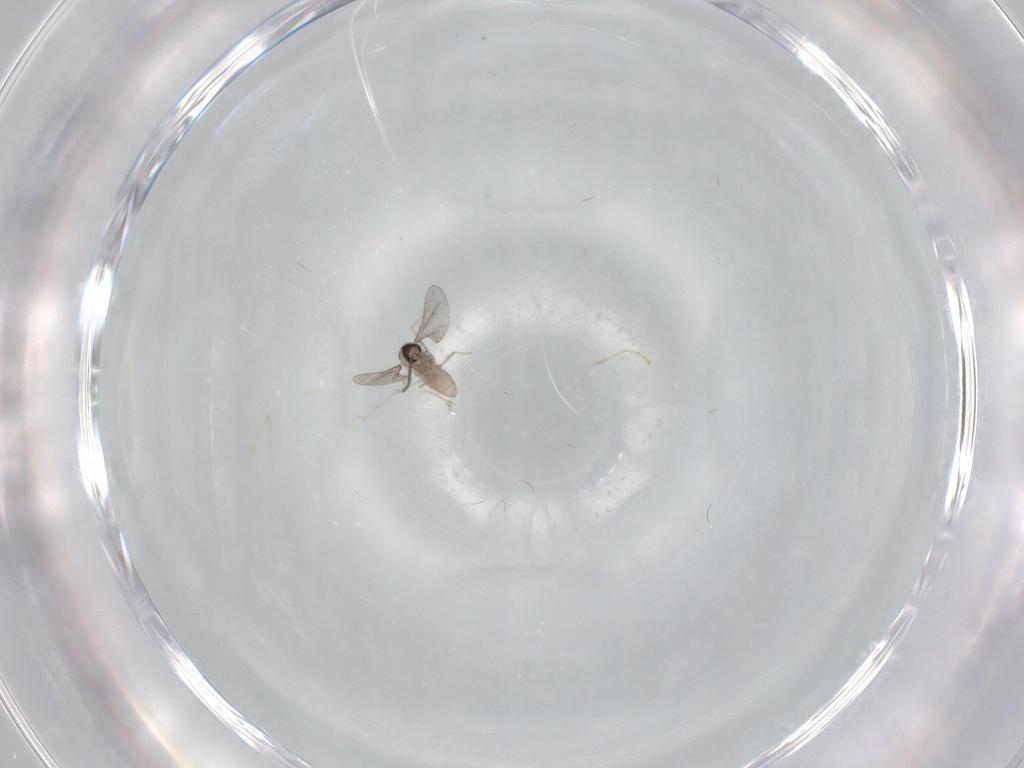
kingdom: Animalia
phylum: Arthropoda
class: Insecta
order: Diptera
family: Cecidomyiidae
